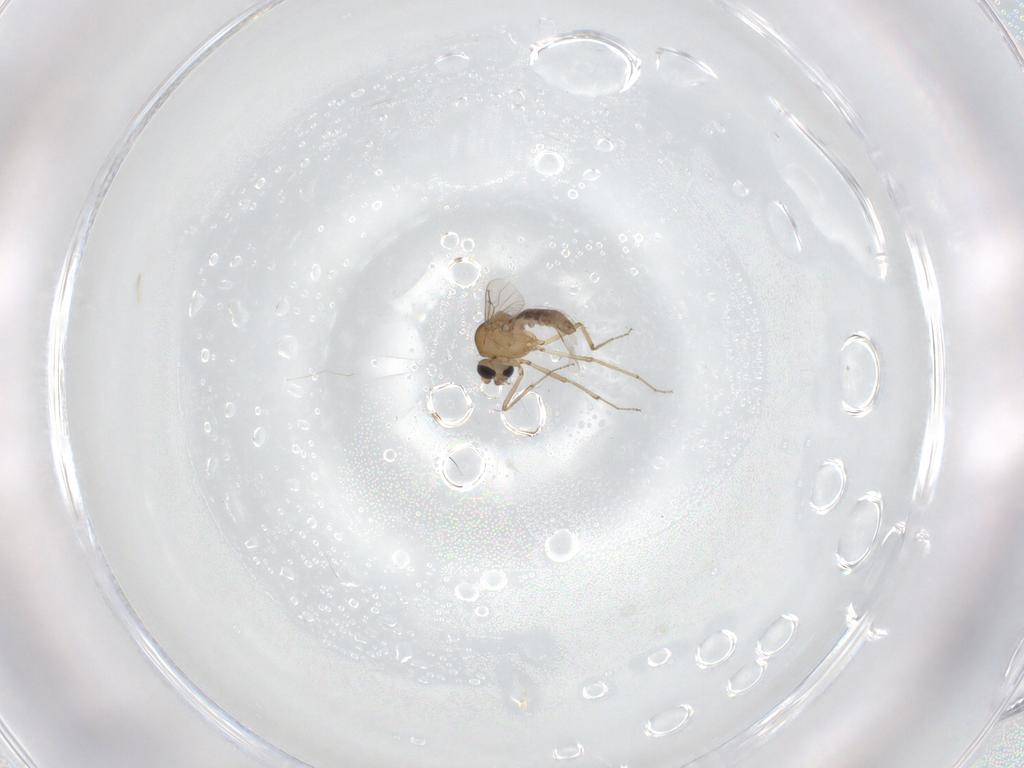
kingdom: Animalia
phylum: Arthropoda
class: Insecta
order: Diptera
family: Ceratopogonidae
